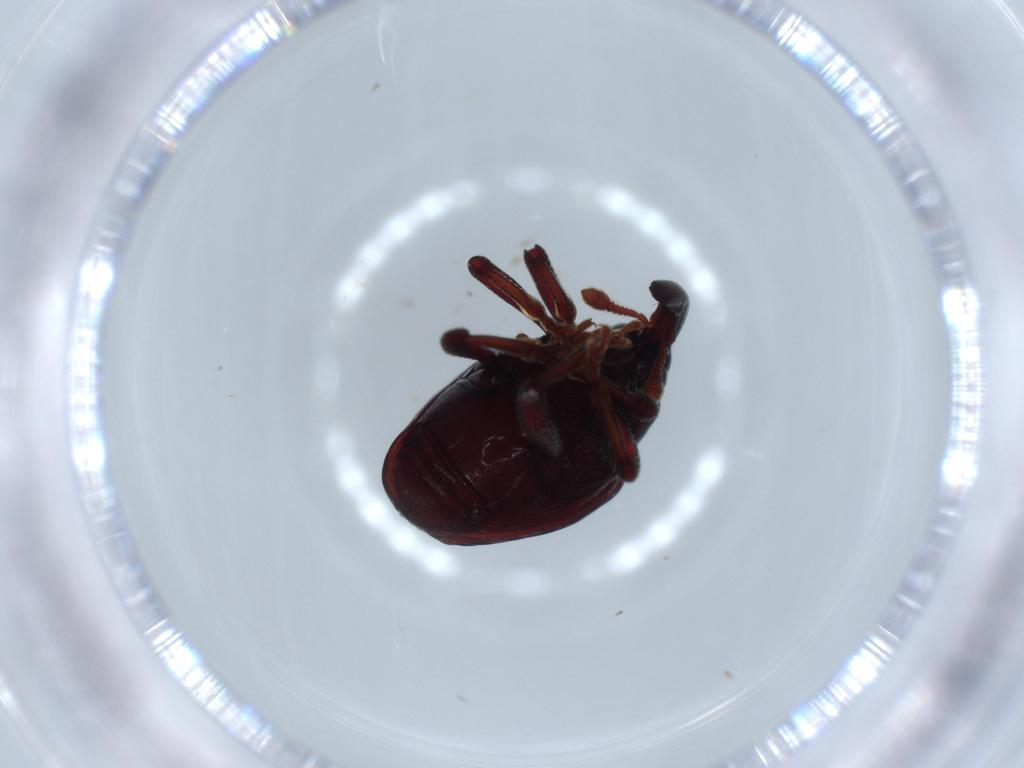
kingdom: Animalia
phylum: Arthropoda
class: Insecta
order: Coleoptera
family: Curculionidae
